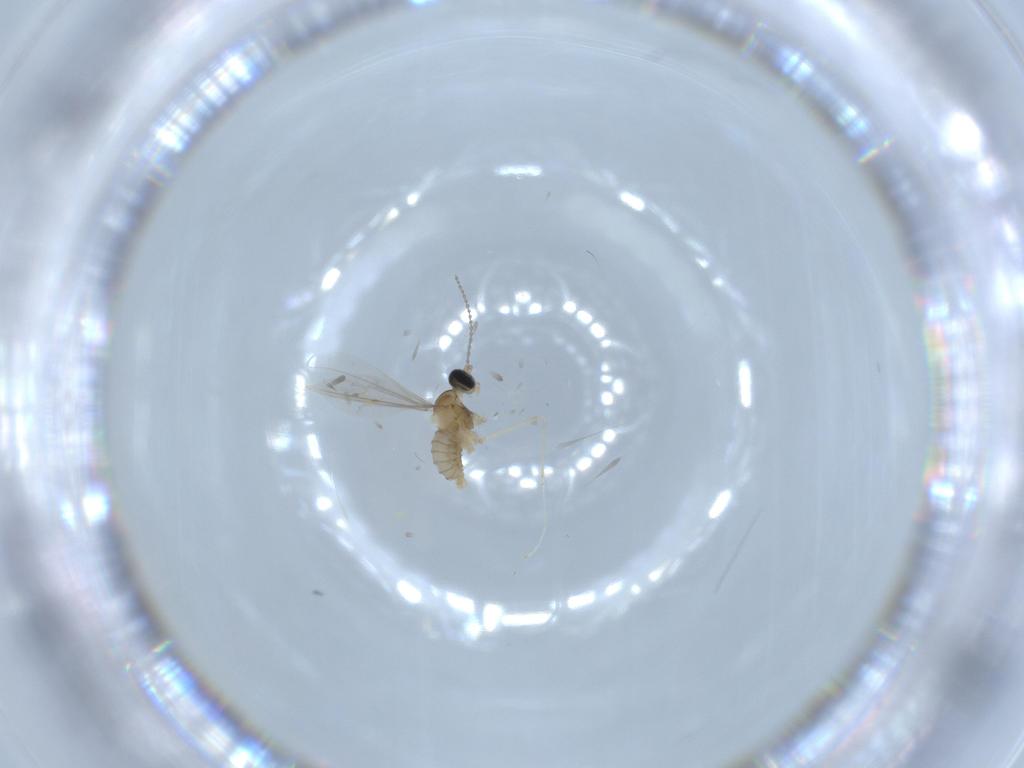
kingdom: Animalia
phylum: Arthropoda
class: Insecta
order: Diptera
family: Cecidomyiidae
